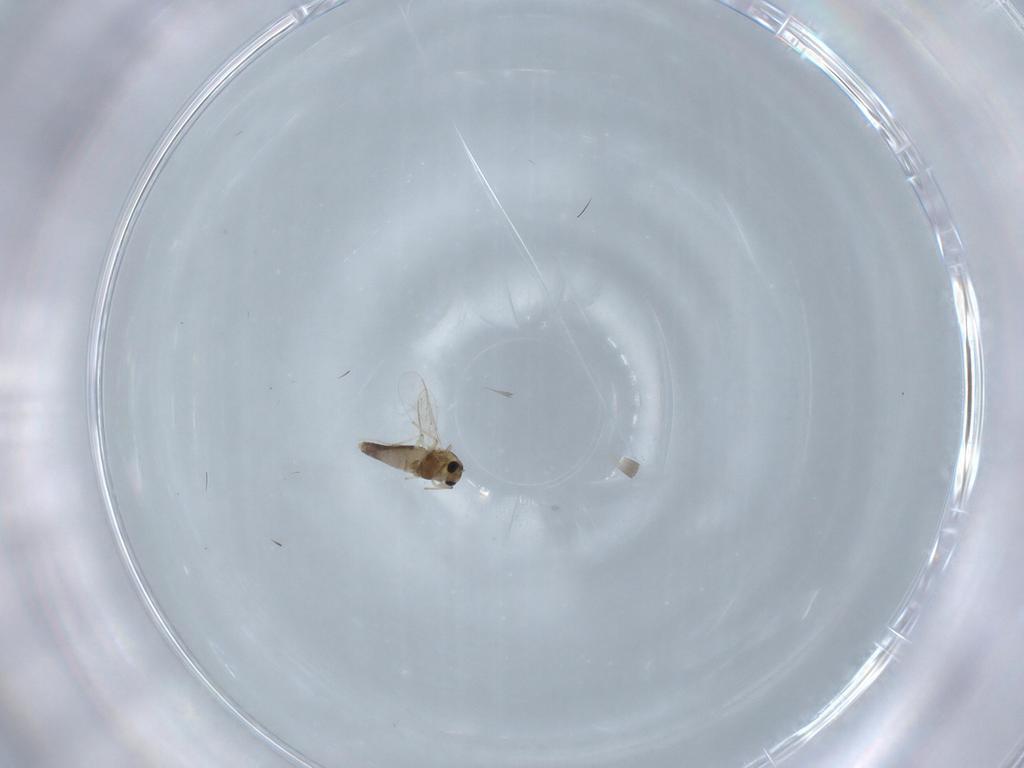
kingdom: Animalia
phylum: Arthropoda
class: Insecta
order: Diptera
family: Chironomidae
